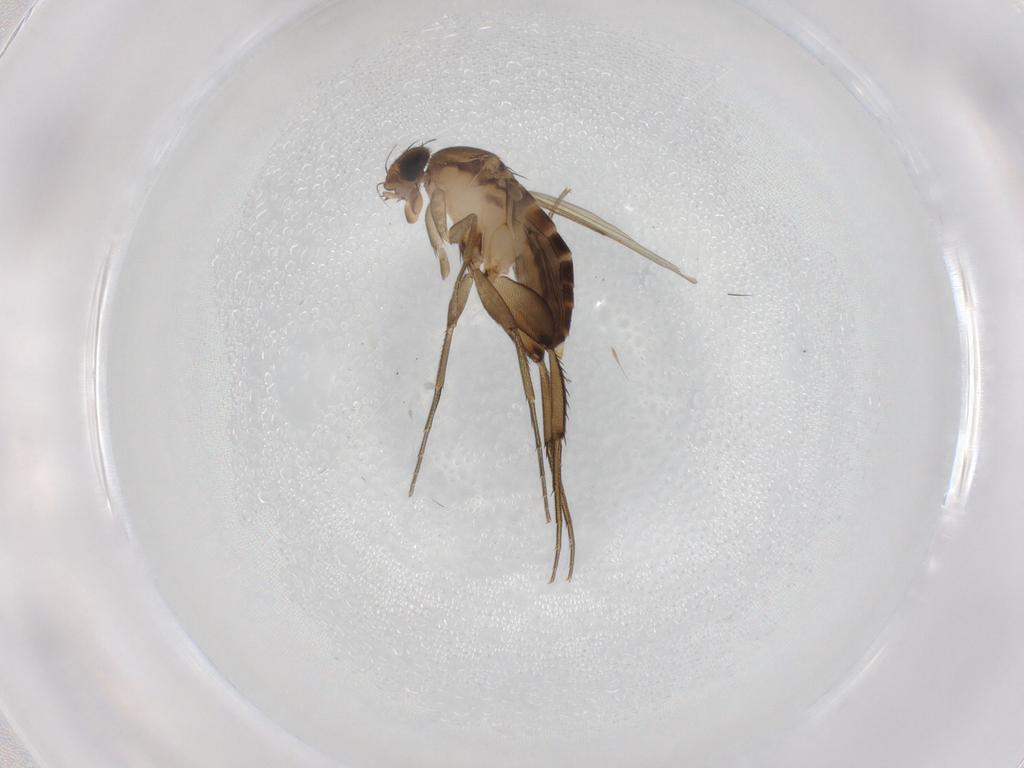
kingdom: Animalia
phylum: Arthropoda
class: Insecta
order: Diptera
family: Phoridae
